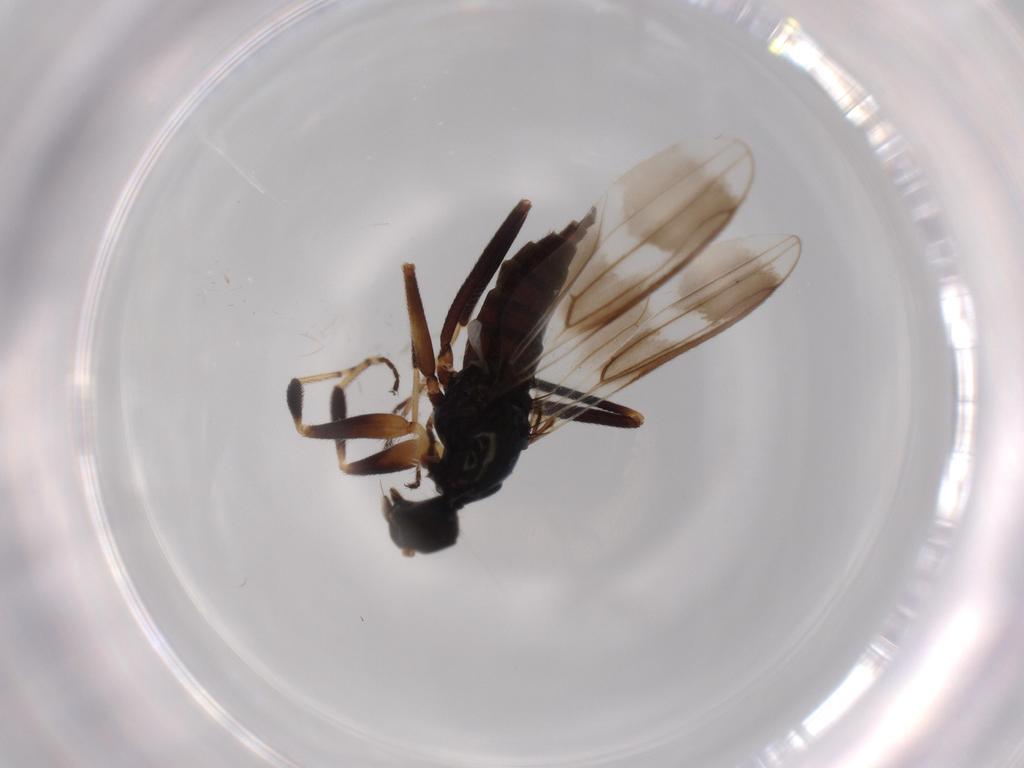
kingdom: Animalia
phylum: Arthropoda
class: Insecta
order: Diptera
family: Hybotidae
